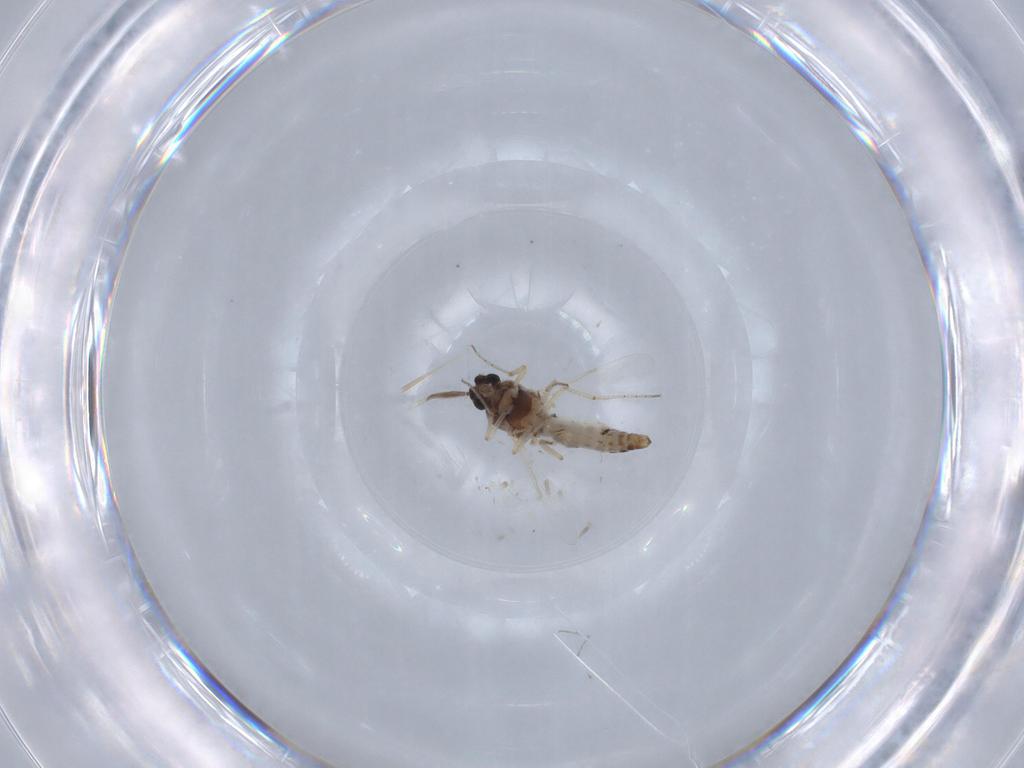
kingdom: Animalia
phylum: Arthropoda
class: Insecta
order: Diptera
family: Ceratopogonidae
